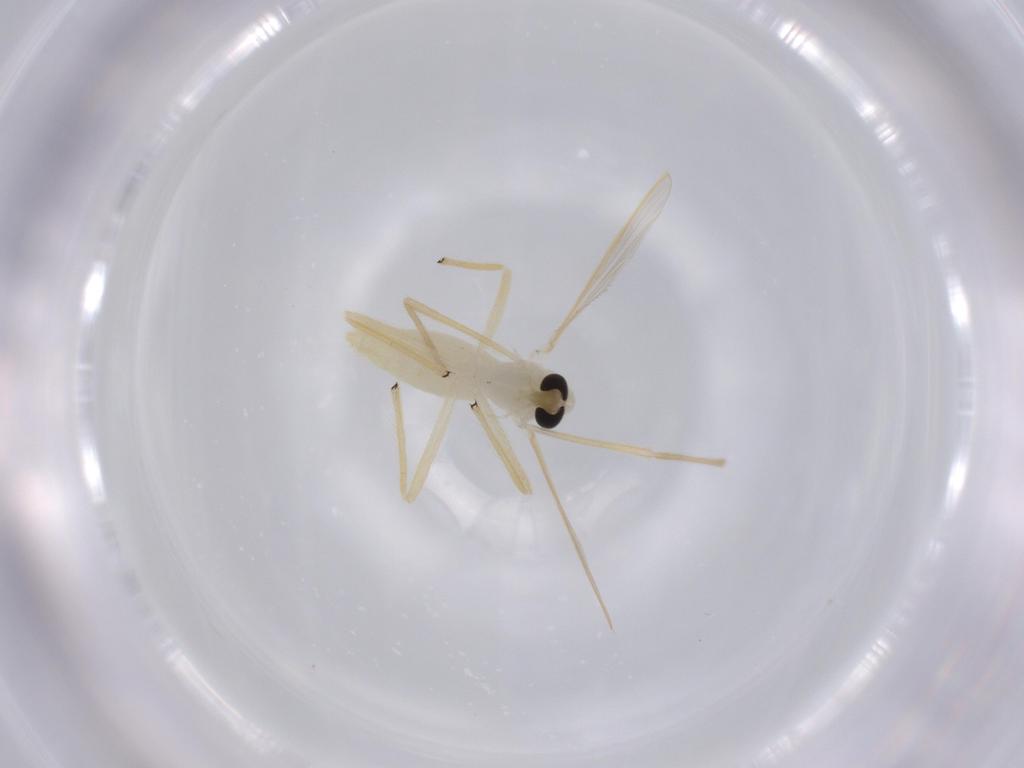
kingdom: Animalia
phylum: Arthropoda
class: Insecta
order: Diptera
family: Chironomidae
